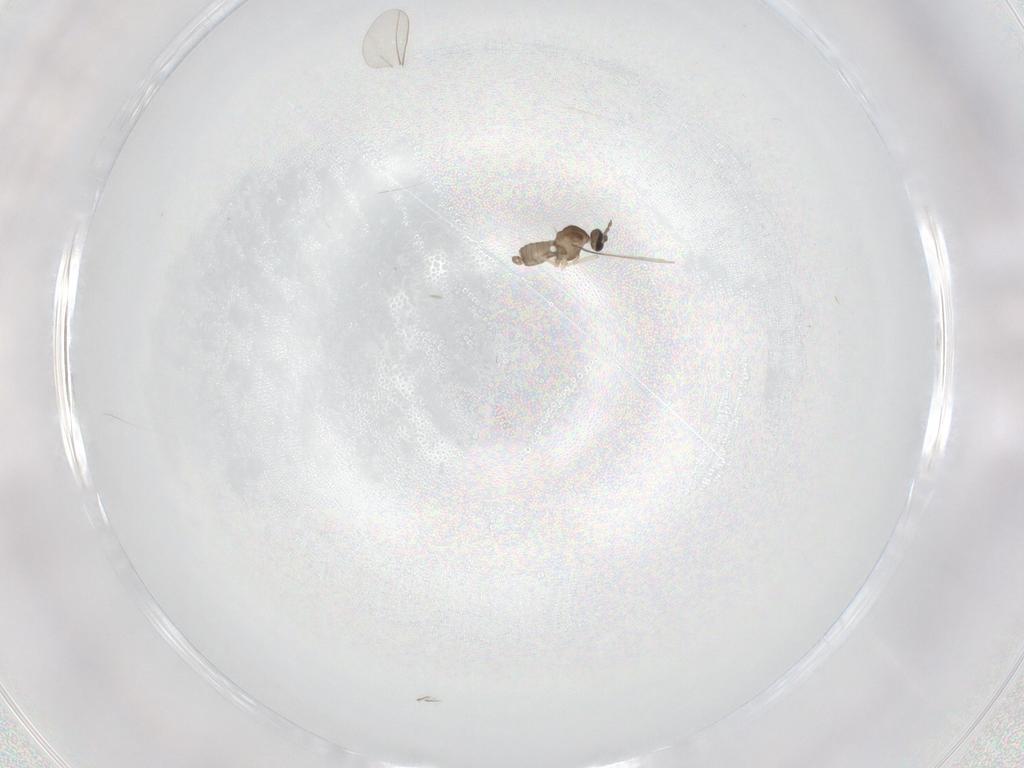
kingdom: Animalia
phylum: Arthropoda
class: Insecta
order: Diptera
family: Cecidomyiidae
